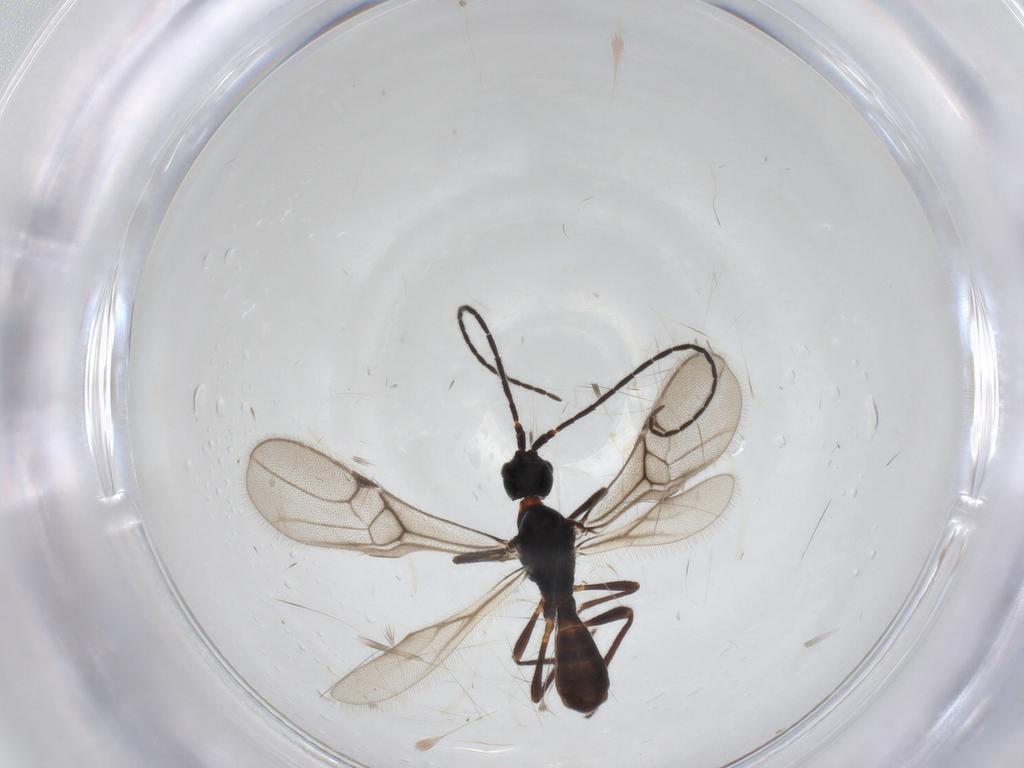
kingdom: Animalia
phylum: Arthropoda
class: Insecta
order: Hymenoptera
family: Braconidae
